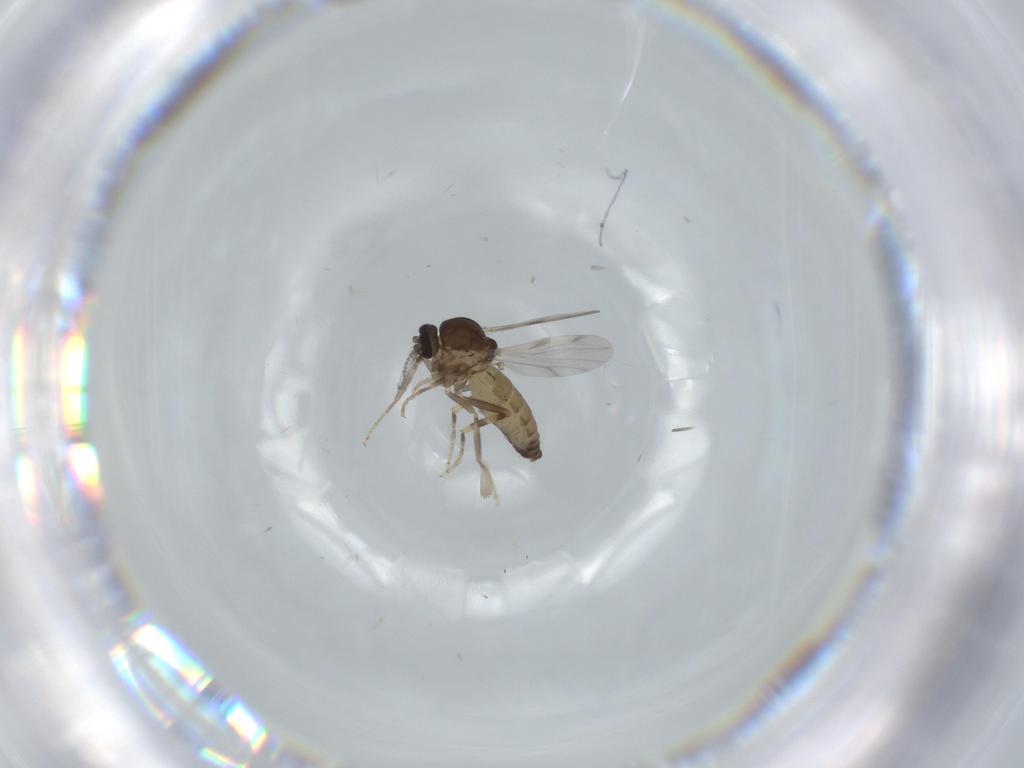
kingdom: Animalia
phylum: Arthropoda
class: Insecta
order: Diptera
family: Ceratopogonidae
